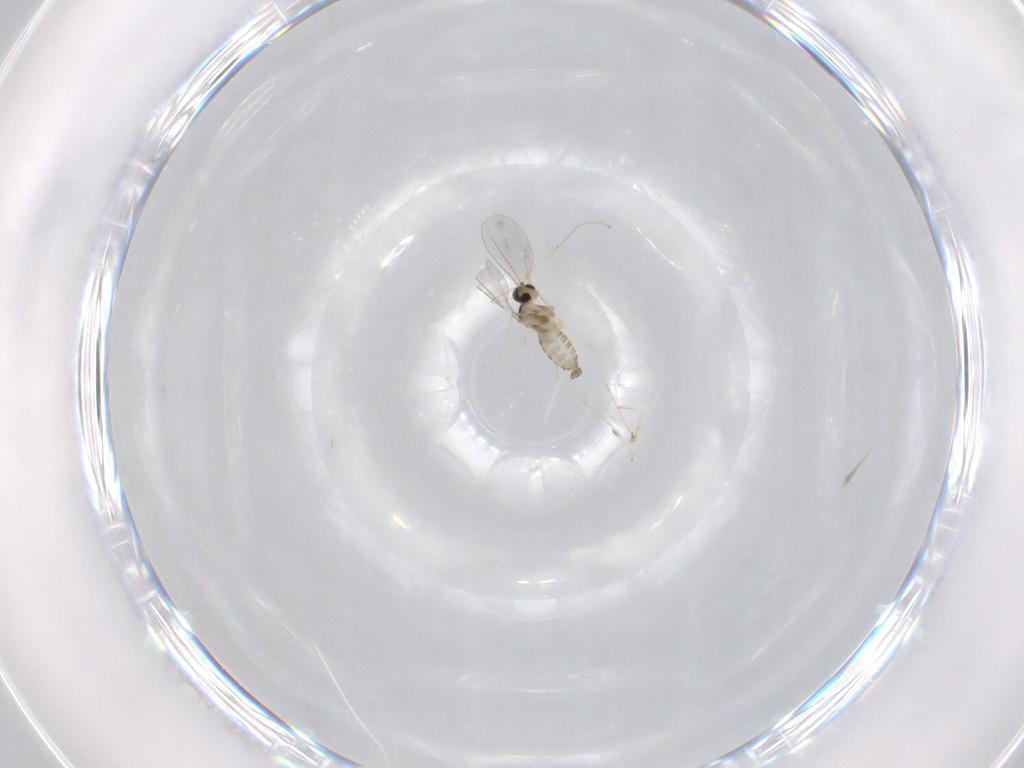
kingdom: Animalia
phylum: Arthropoda
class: Insecta
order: Diptera
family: Cecidomyiidae
